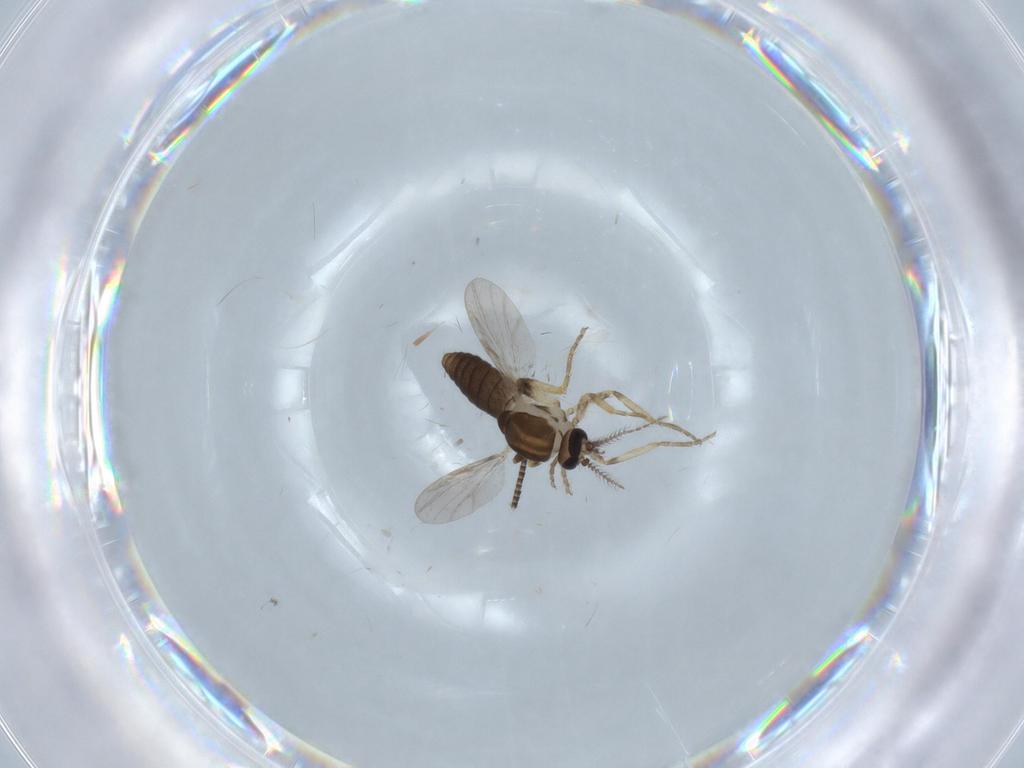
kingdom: Animalia
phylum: Arthropoda
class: Insecta
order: Diptera
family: Ceratopogonidae
